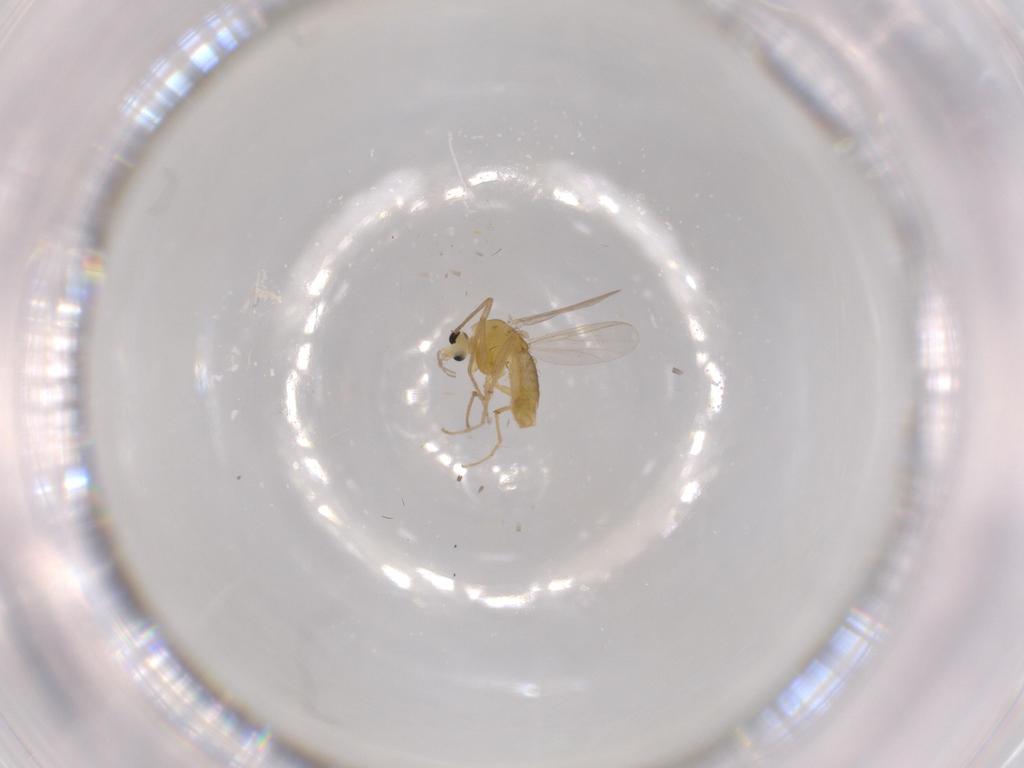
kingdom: Animalia
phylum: Arthropoda
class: Insecta
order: Diptera
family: Chironomidae
